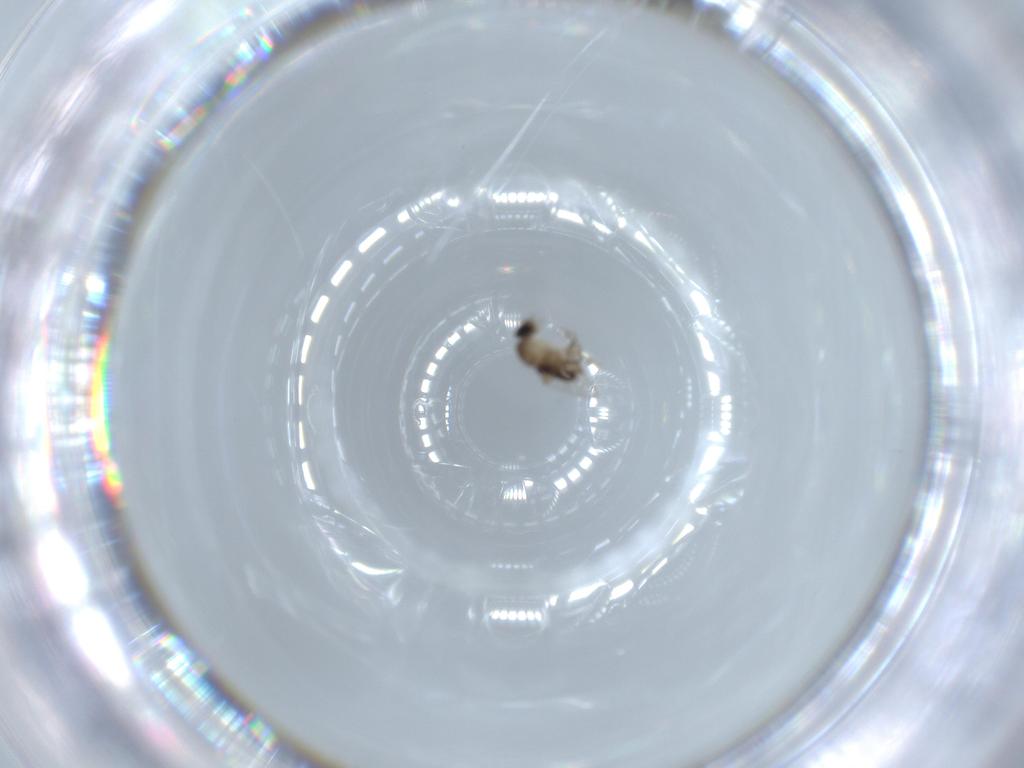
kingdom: Animalia
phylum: Arthropoda
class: Insecta
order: Diptera
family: Phoridae
